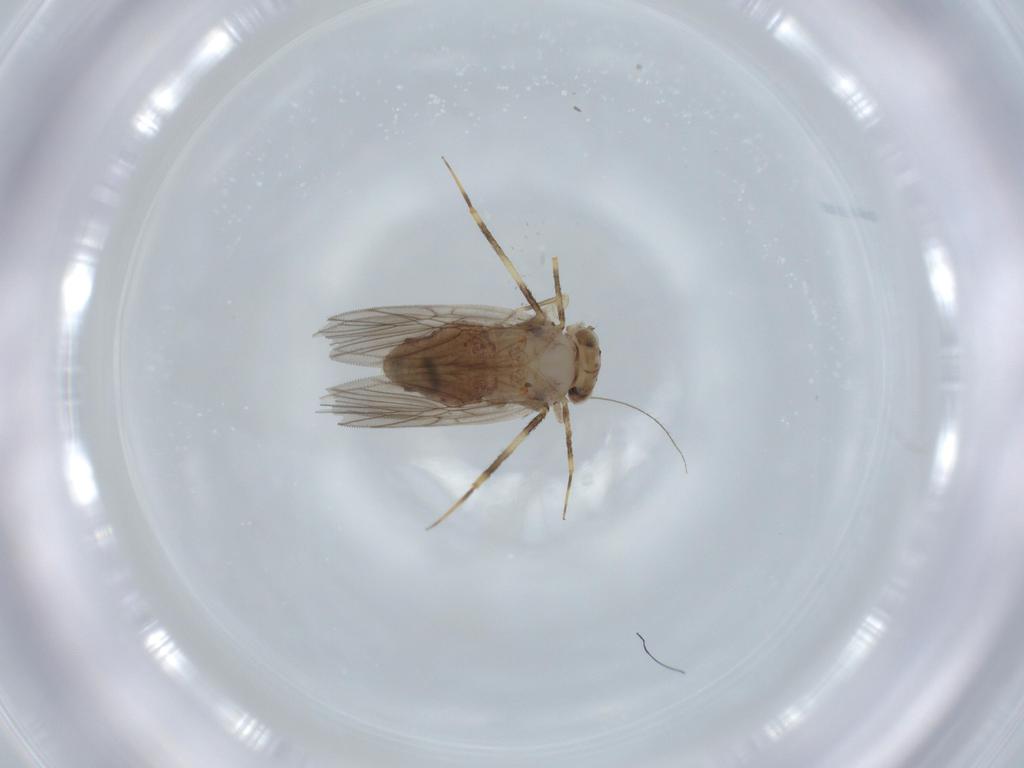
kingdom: Animalia
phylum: Arthropoda
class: Insecta
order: Psocodea
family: Lepidopsocidae
